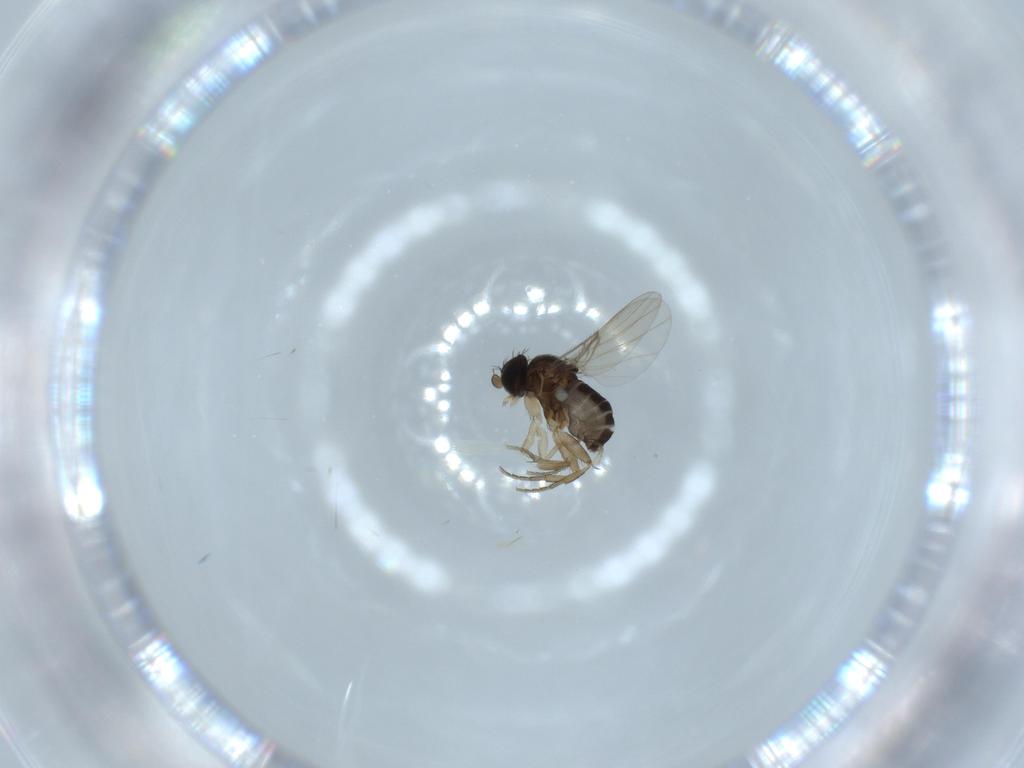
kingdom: Animalia
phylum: Arthropoda
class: Insecta
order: Diptera
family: Phoridae
